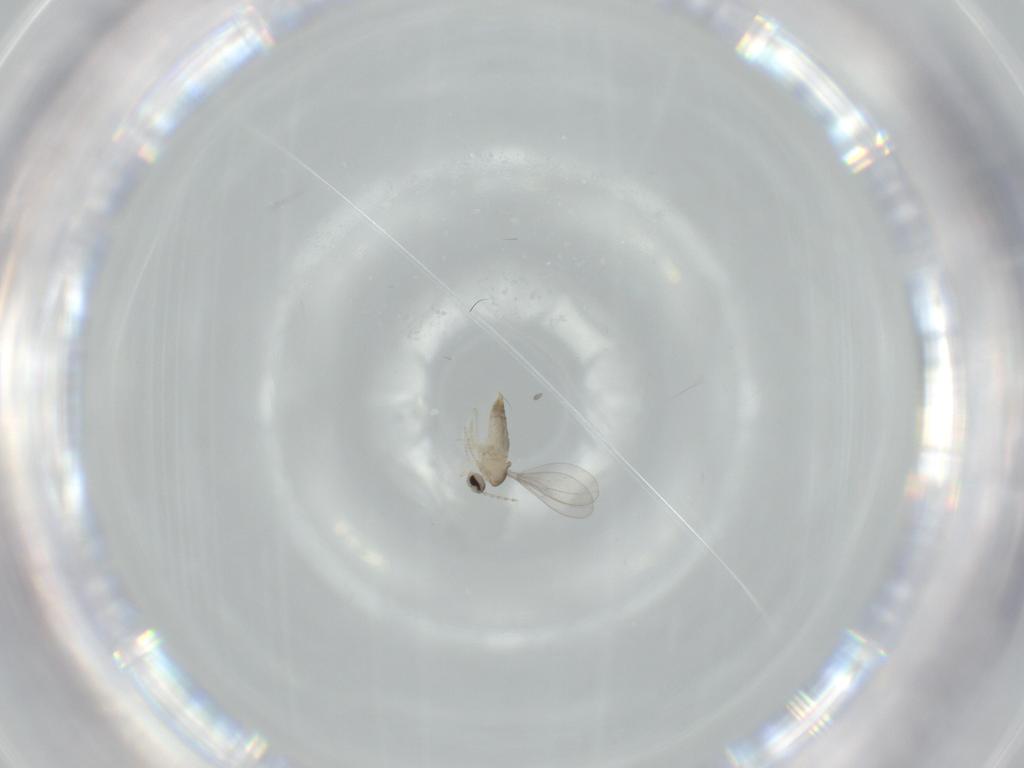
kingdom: Animalia
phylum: Arthropoda
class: Insecta
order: Diptera
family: Cecidomyiidae
